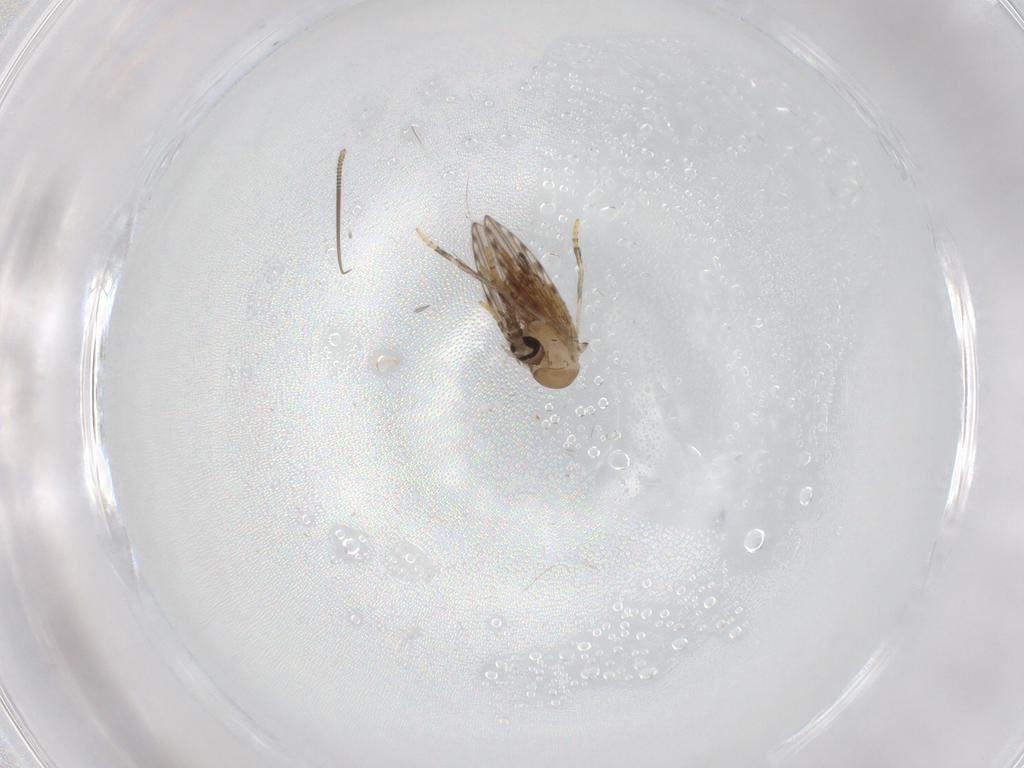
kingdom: Animalia
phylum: Arthropoda
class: Insecta
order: Diptera
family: Psychodidae
